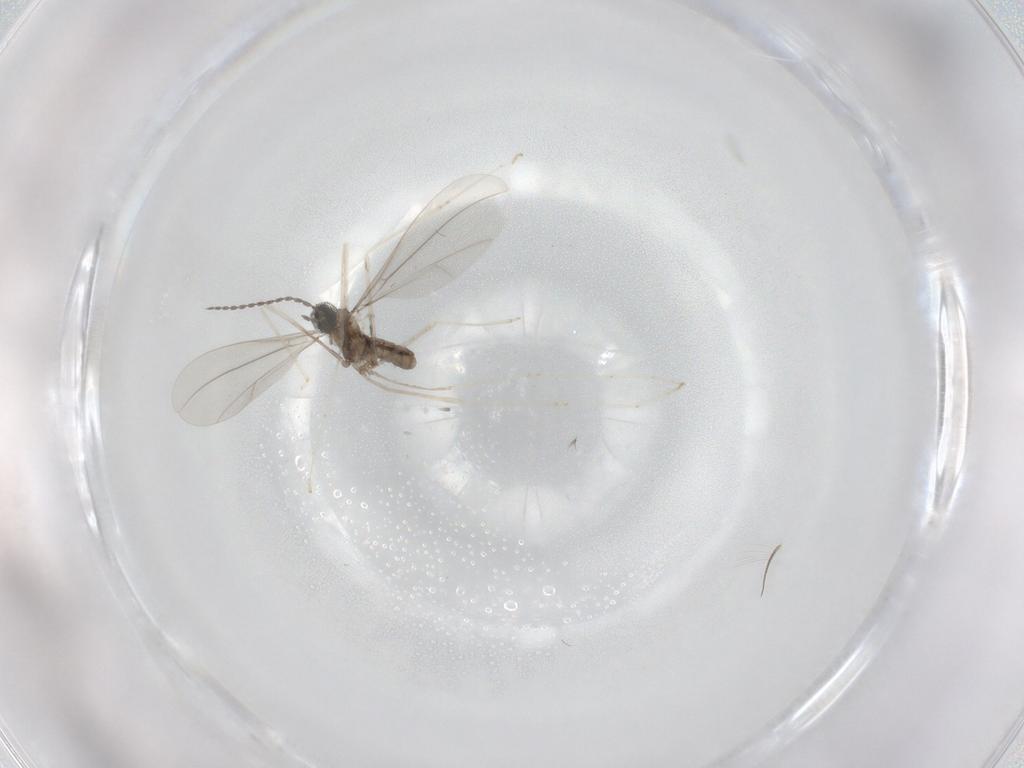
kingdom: Animalia
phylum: Arthropoda
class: Insecta
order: Diptera
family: Cecidomyiidae
